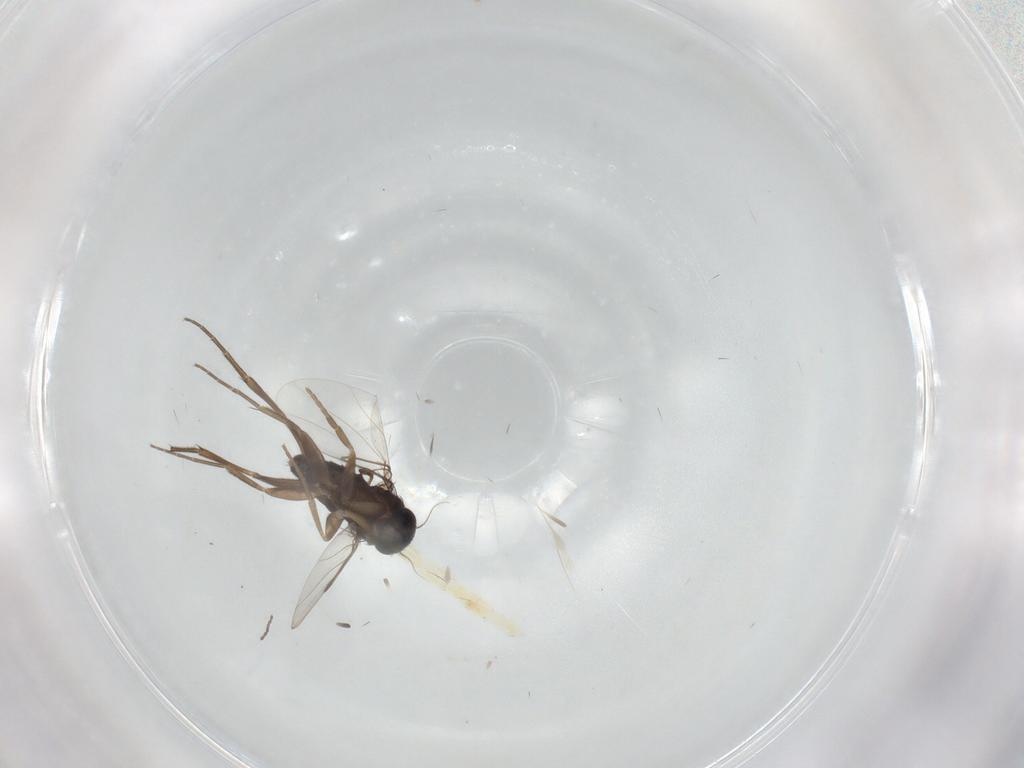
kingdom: Animalia
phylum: Arthropoda
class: Insecta
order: Diptera
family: Phoridae
